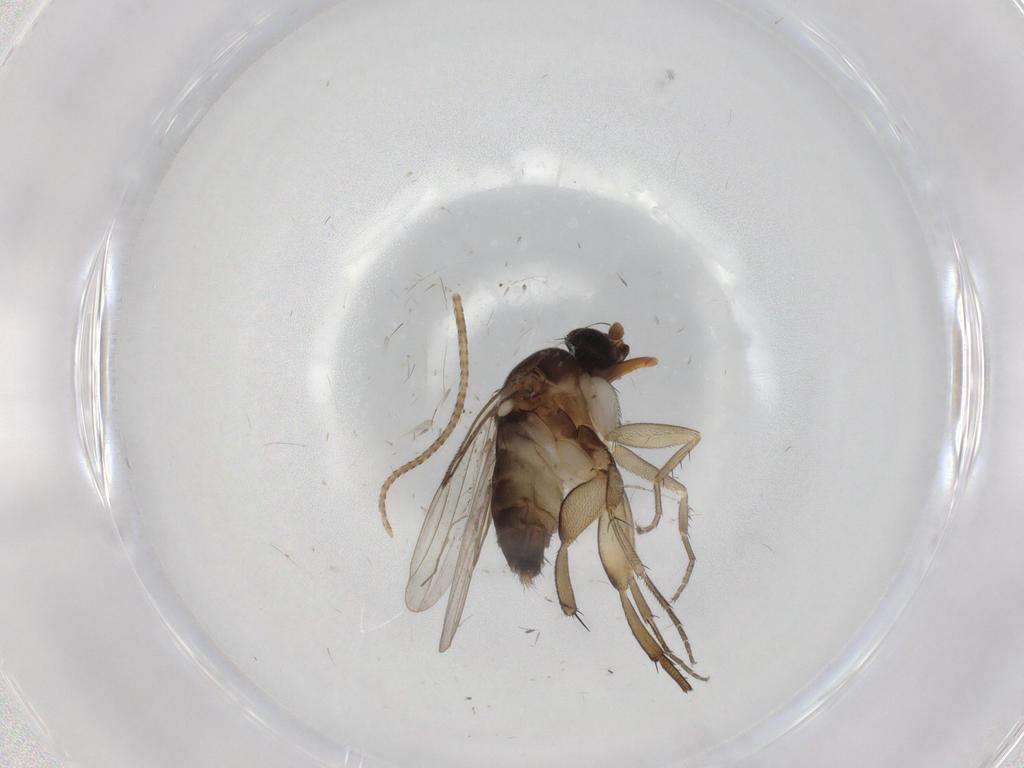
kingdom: Animalia
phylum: Arthropoda
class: Insecta
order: Diptera
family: Phoridae
